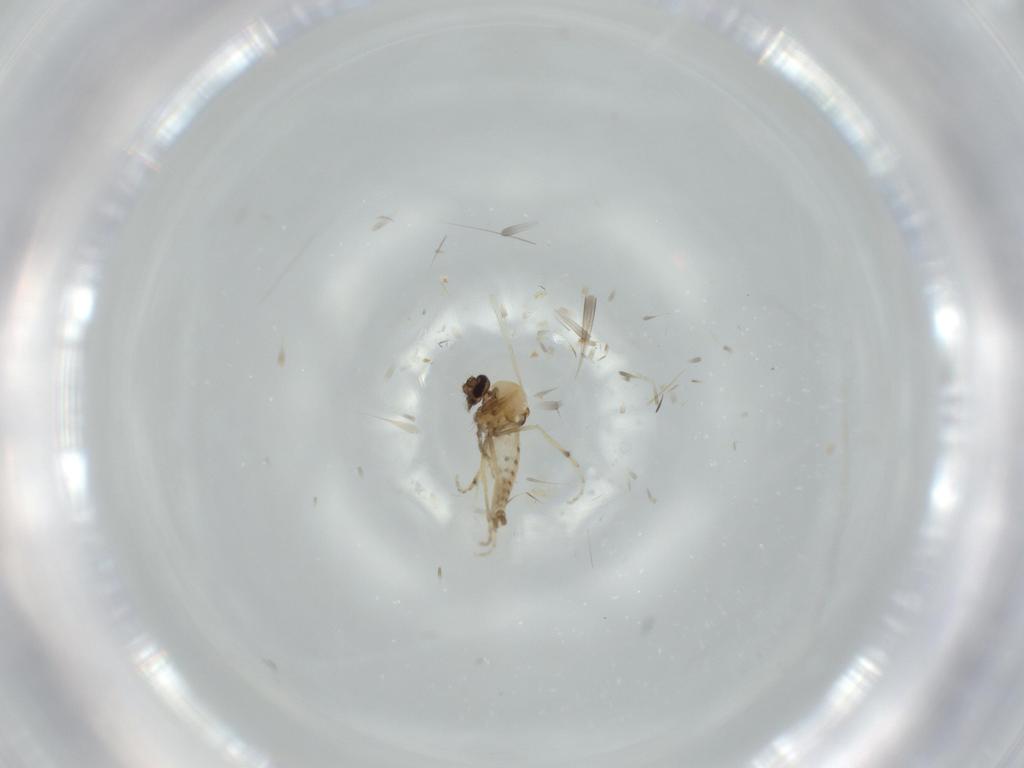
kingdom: Animalia
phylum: Arthropoda
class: Insecta
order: Diptera
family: Ceratopogonidae
